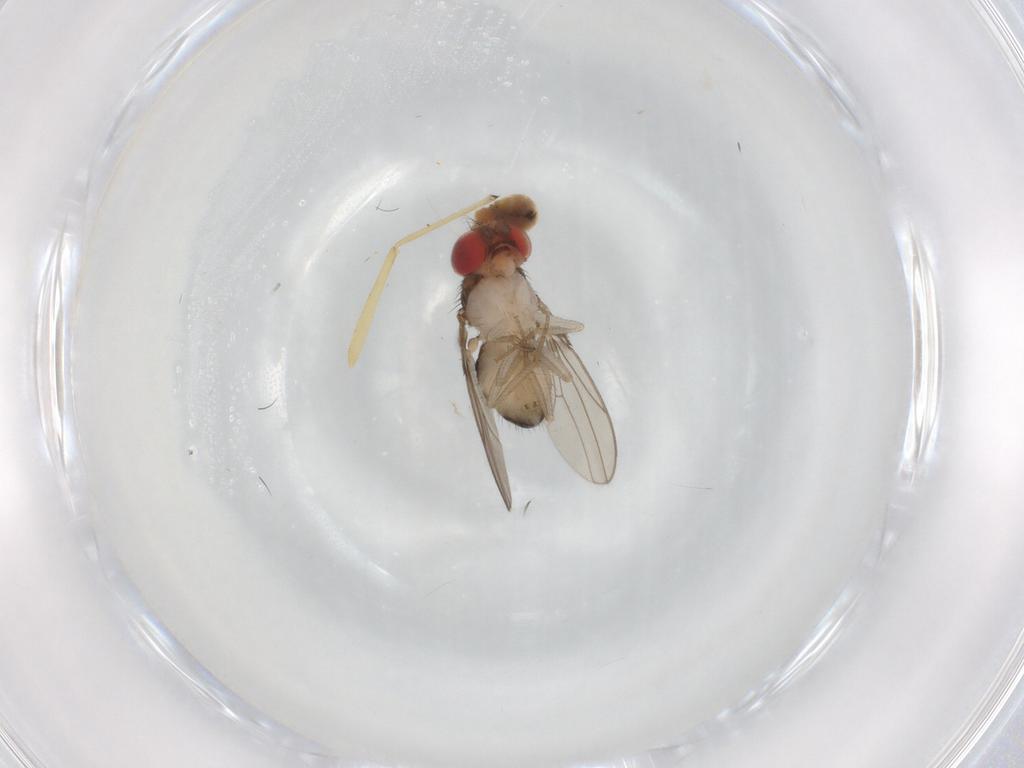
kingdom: Animalia
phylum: Arthropoda
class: Insecta
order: Diptera
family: Drosophilidae
